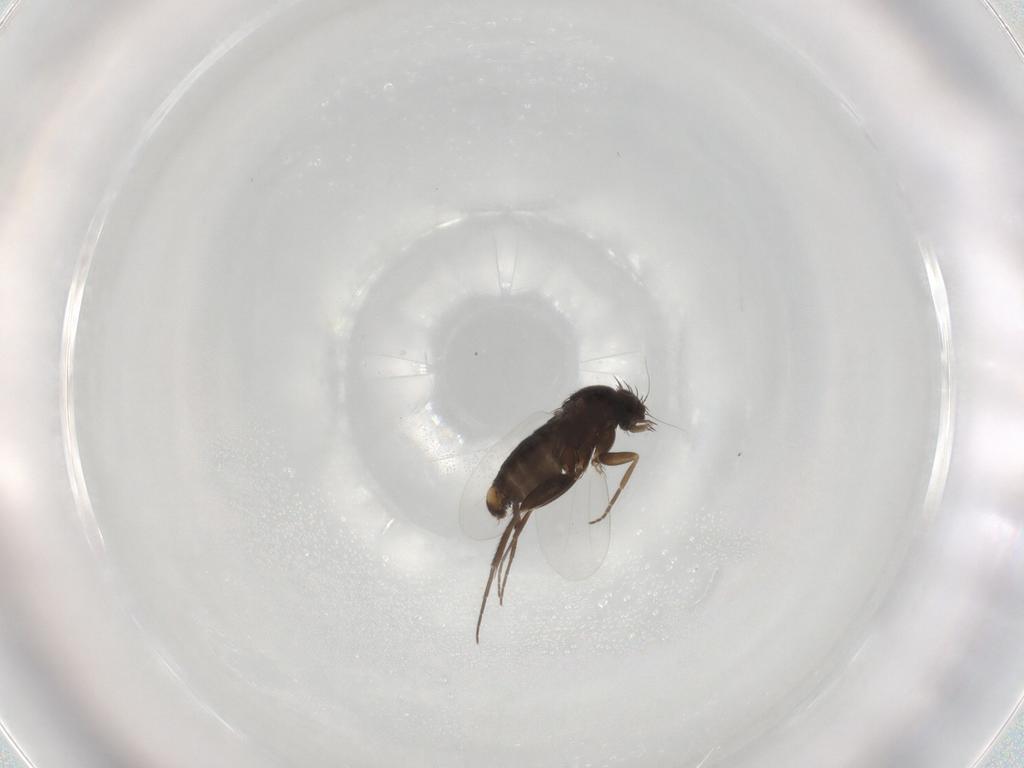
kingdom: Animalia
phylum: Arthropoda
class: Insecta
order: Diptera
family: Phoridae
